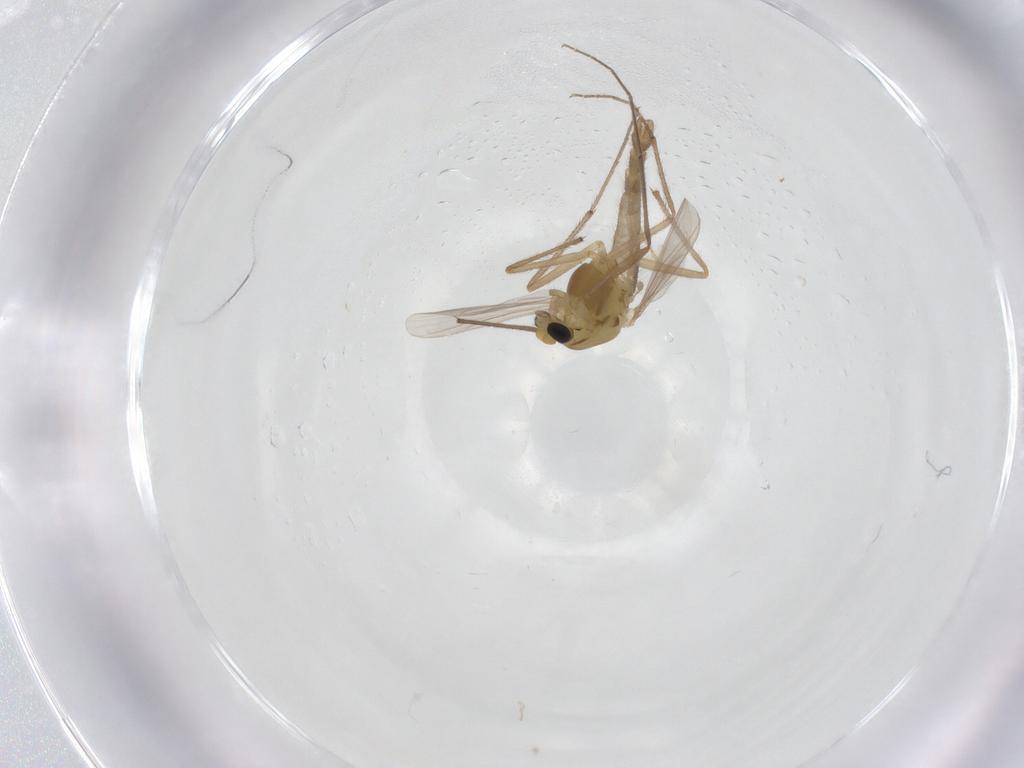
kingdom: Animalia
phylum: Arthropoda
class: Insecta
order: Diptera
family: Chironomidae
